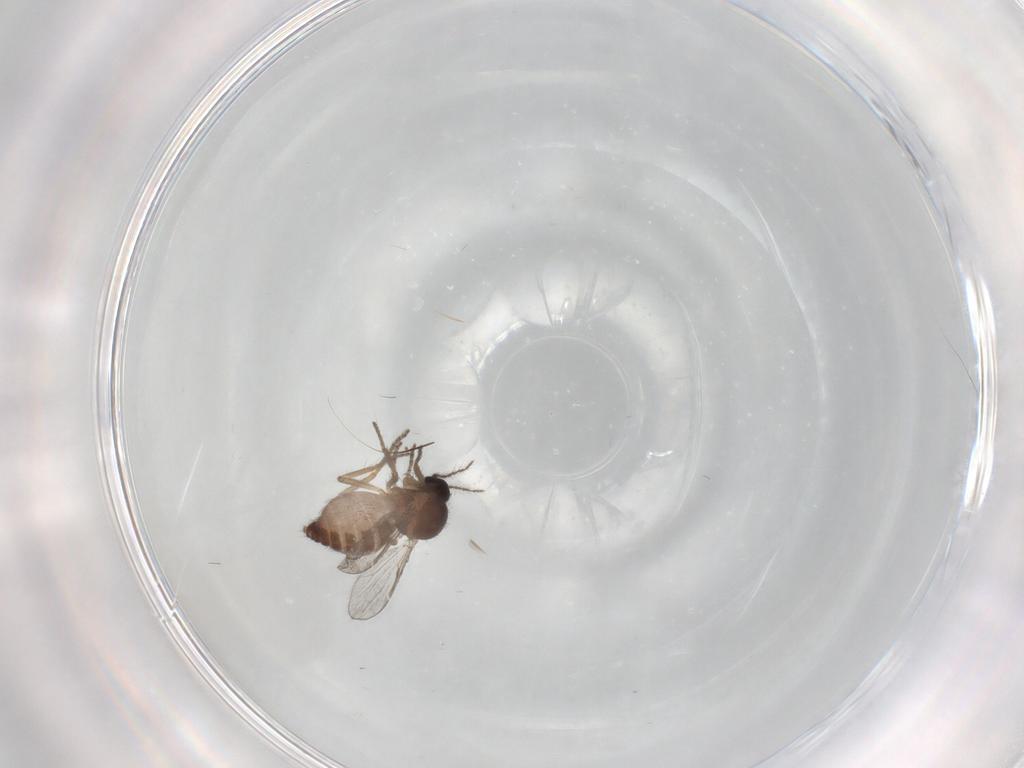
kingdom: Animalia
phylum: Arthropoda
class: Insecta
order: Diptera
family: Ceratopogonidae
